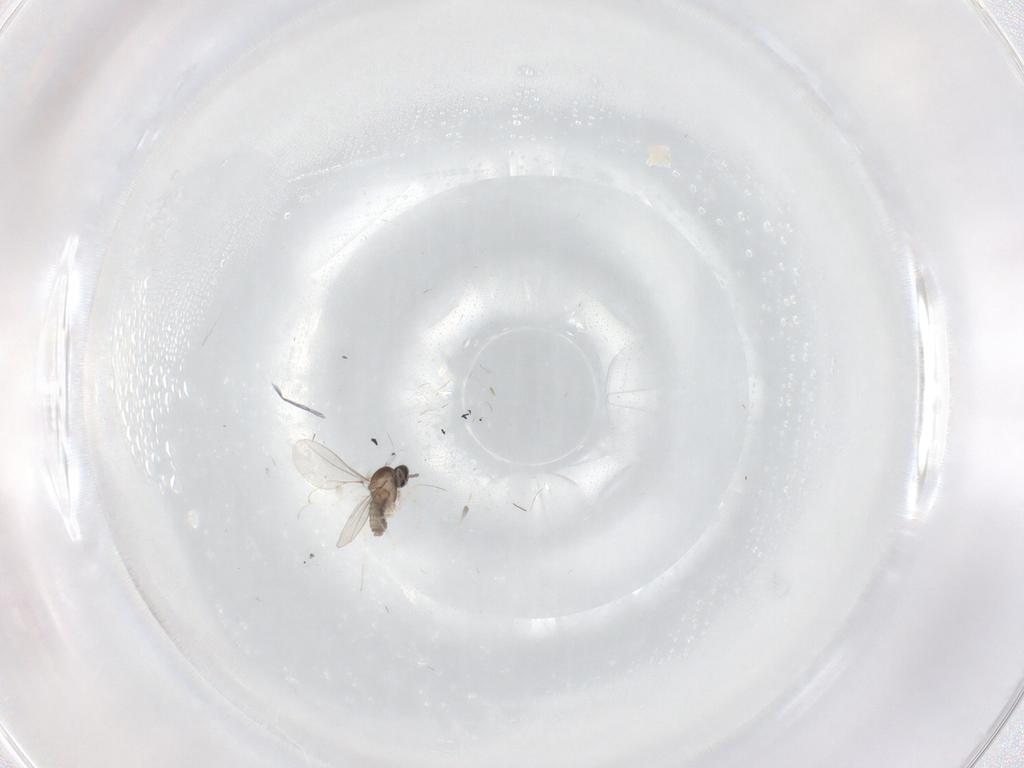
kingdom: Animalia
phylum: Arthropoda
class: Insecta
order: Diptera
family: Cecidomyiidae
